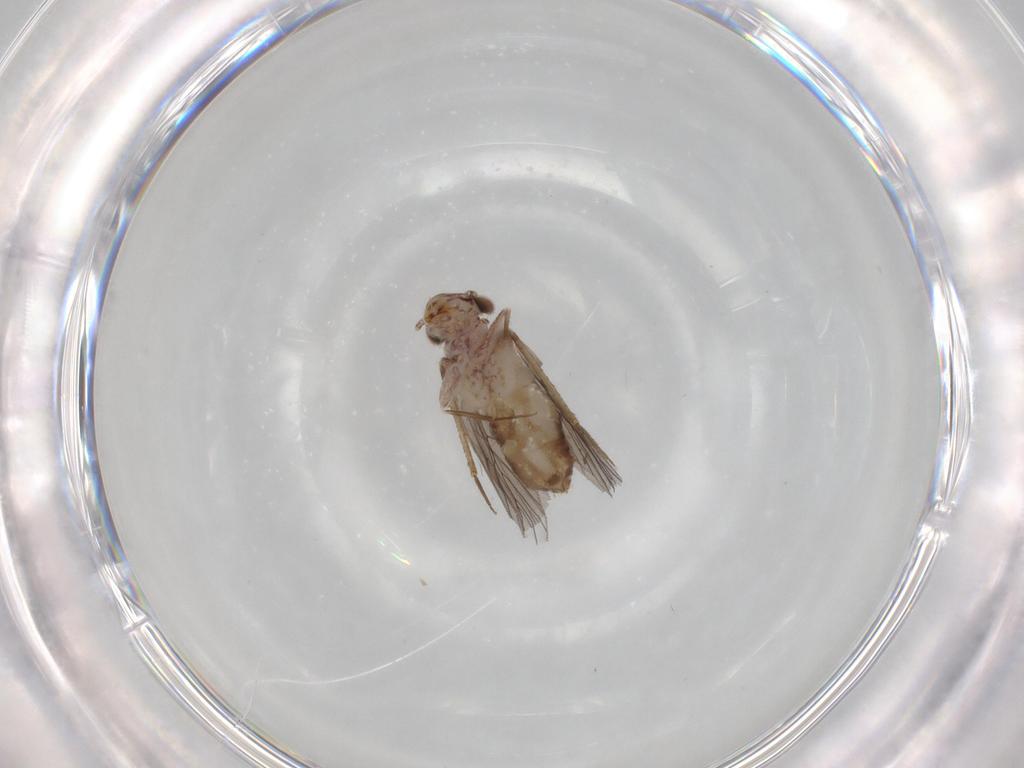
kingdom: Animalia
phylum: Arthropoda
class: Insecta
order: Psocodea
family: Lepidopsocidae
